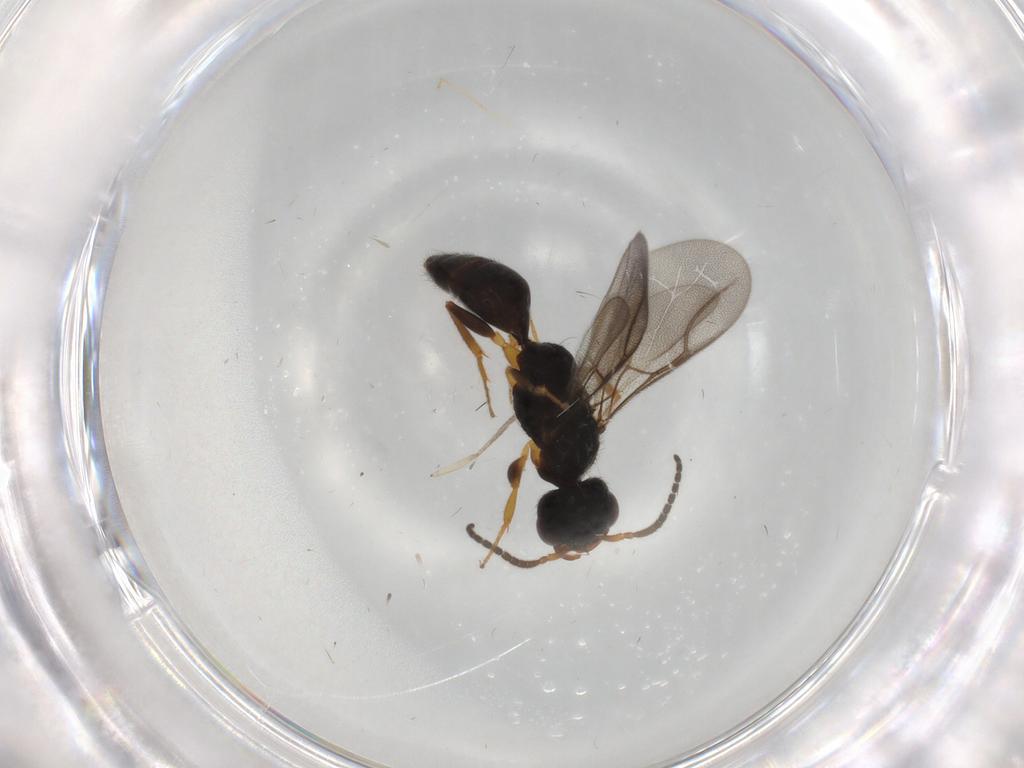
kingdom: Animalia
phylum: Arthropoda
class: Insecta
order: Hymenoptera
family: Bethylidae
